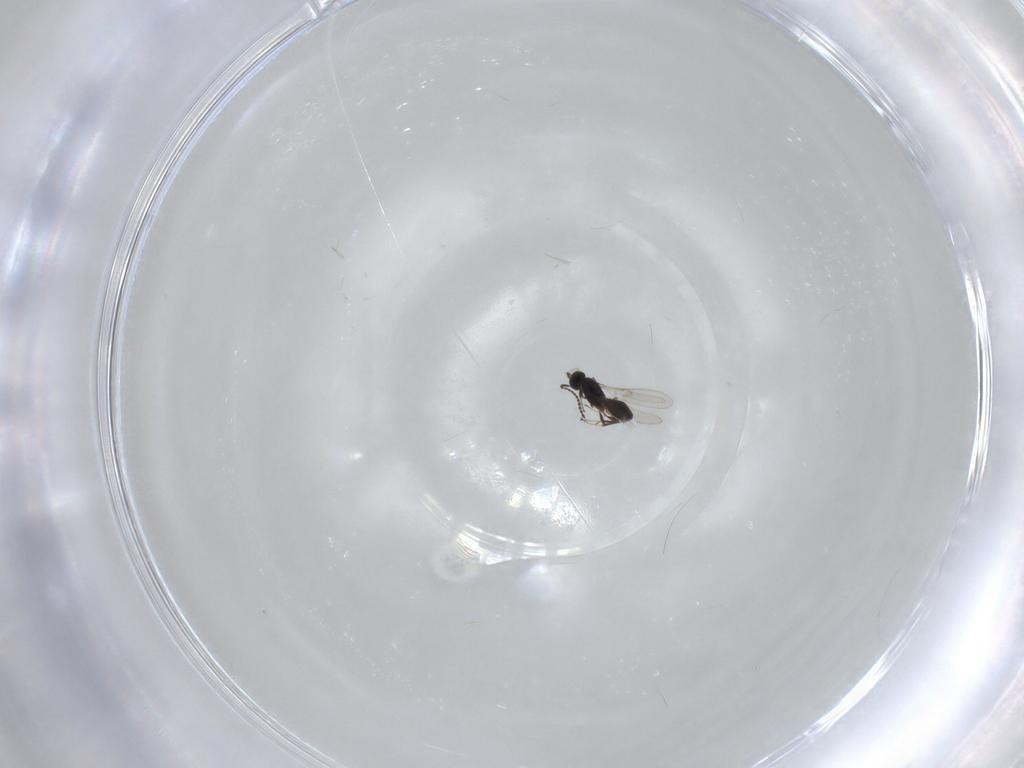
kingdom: Animalia
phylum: Arthropoda
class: Insecta
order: Hymenoptera
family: Scelionidae
